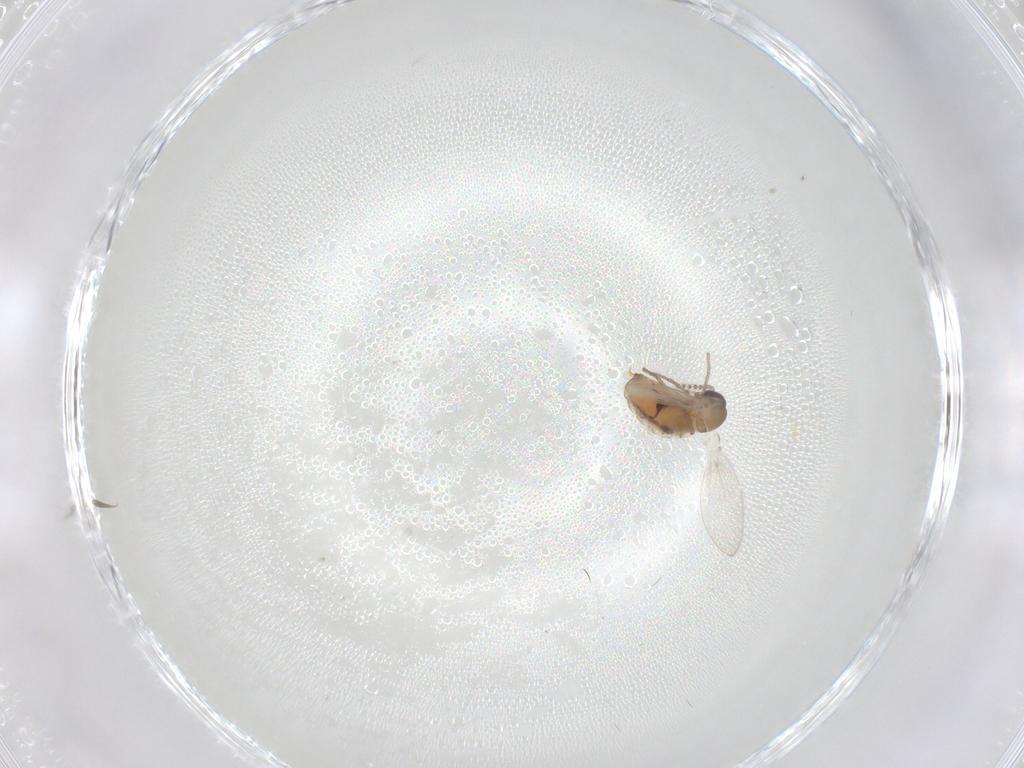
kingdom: Animalia
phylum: Arthropoda
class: Insecta
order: Diptera
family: Psychodidae
